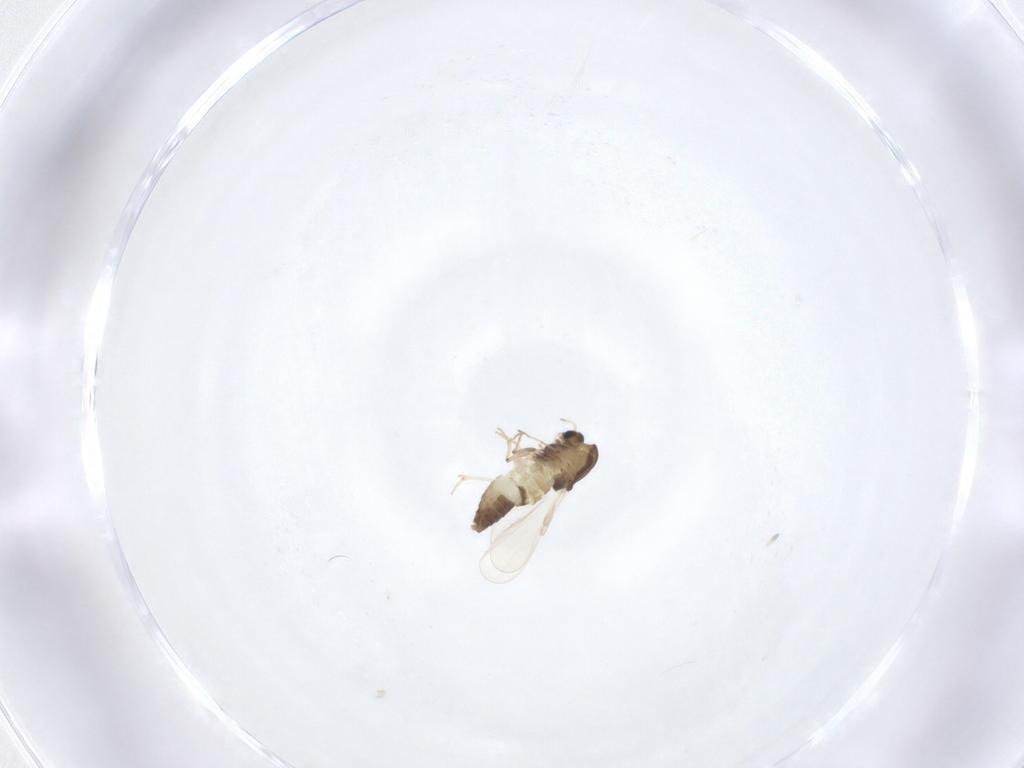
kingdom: Animalia
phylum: Arthropoda
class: Insecta
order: Diptera
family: Chironomidae
